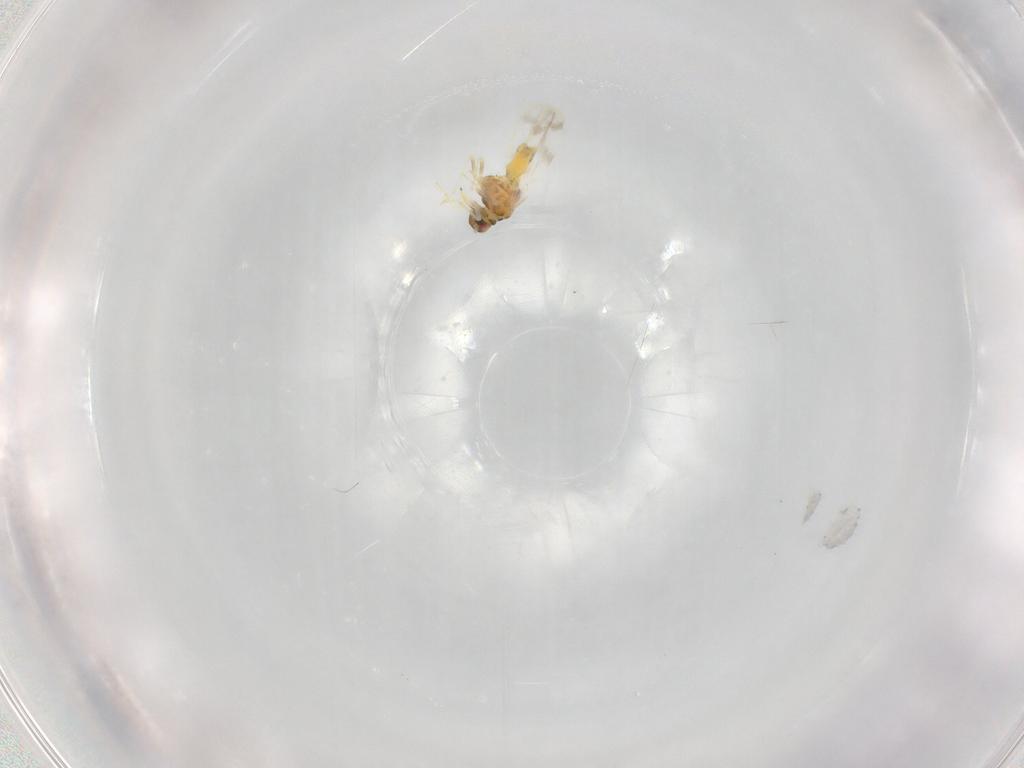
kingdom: Animalia
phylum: Arthropoda
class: Insecta
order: Hemiptera
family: Aleyrodidae
